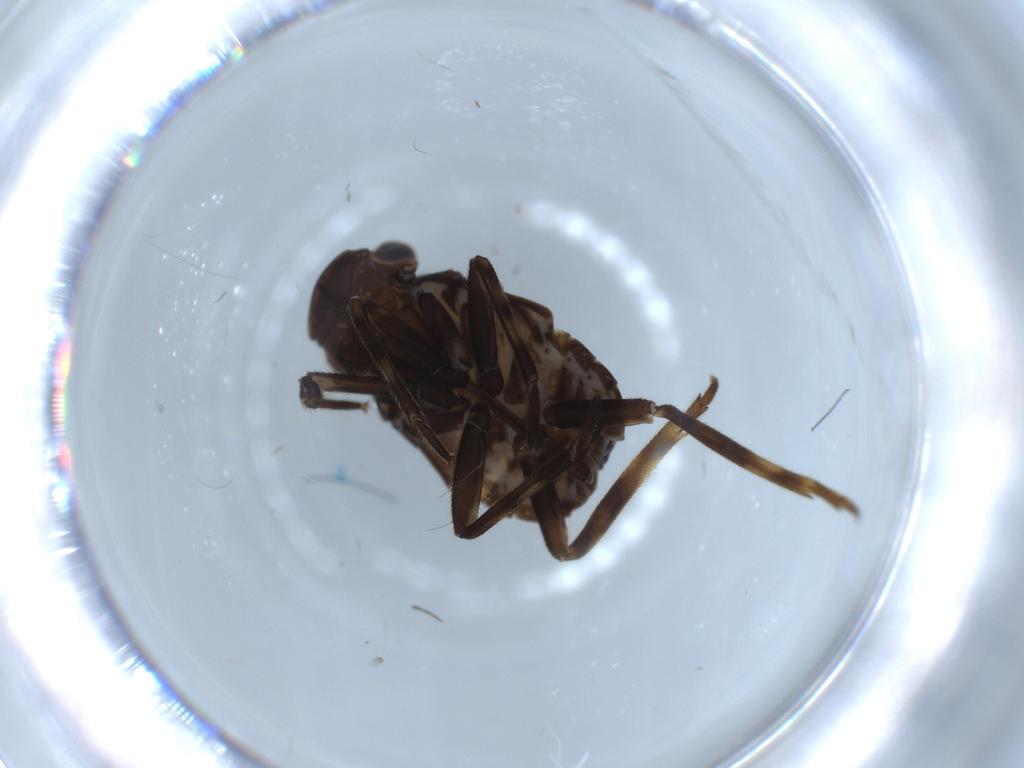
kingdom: Animalia
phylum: Arthropoda
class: Insecta
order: Hemiptera
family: Fulgoridae
